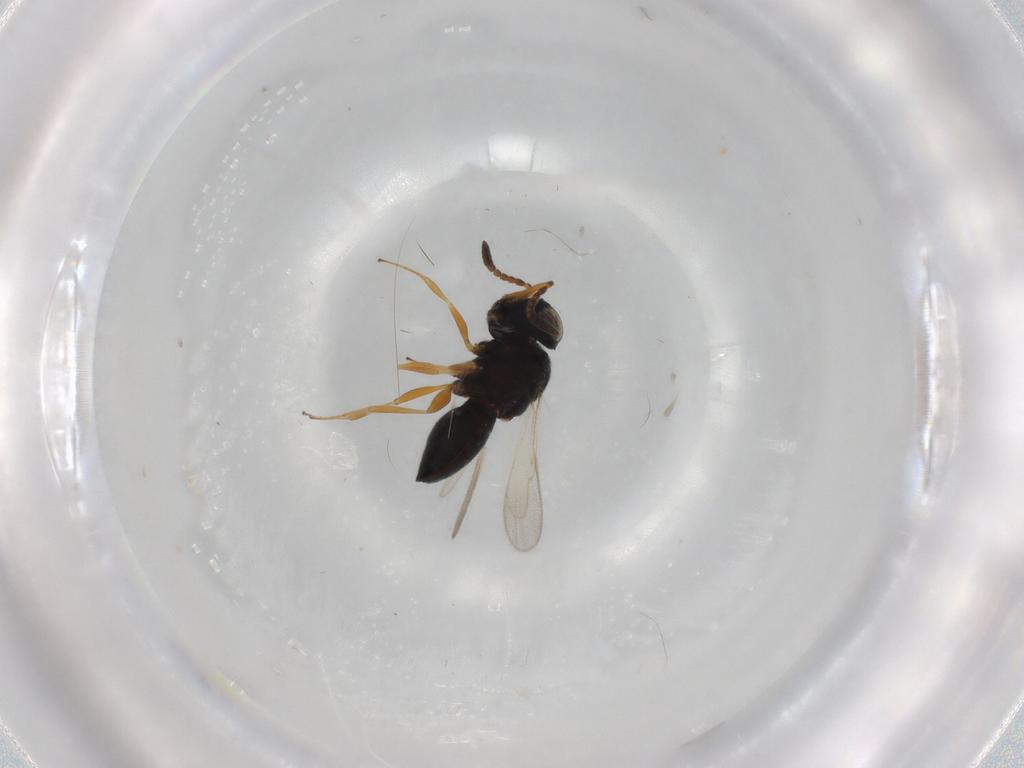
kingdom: Animalia
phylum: Arthropoda
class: Insecta
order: Hymenoptera
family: Scelionidae
